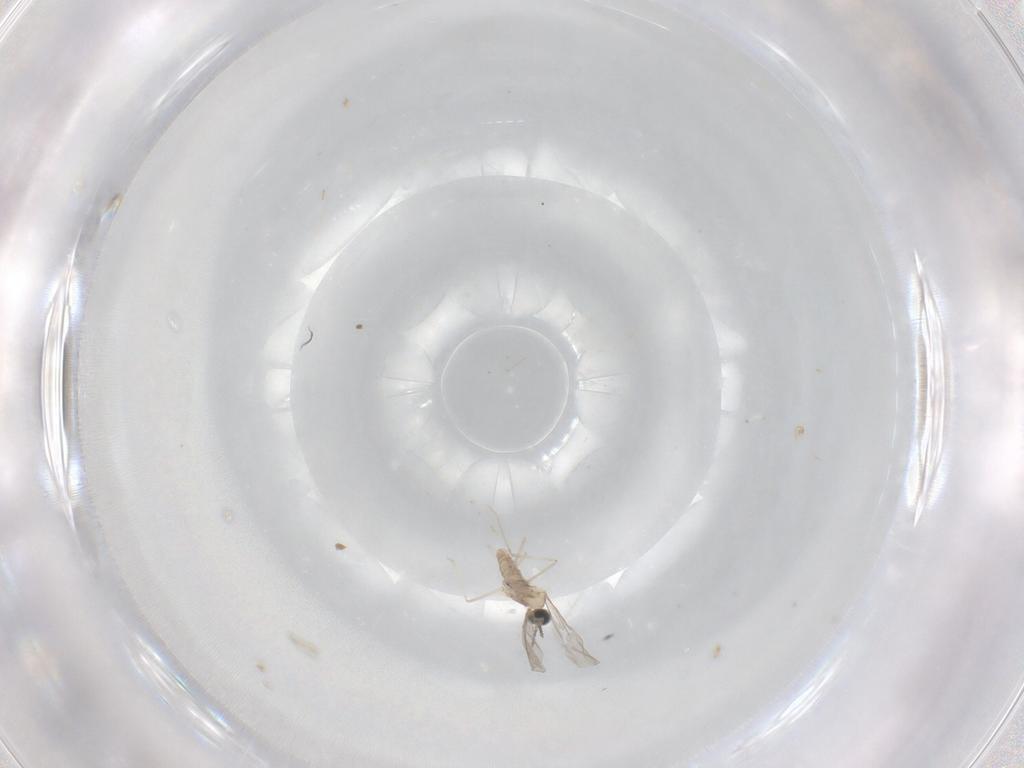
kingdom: Animalia
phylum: Arthropoda
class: Insecta
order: Diptera
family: Cecidomyiidae
